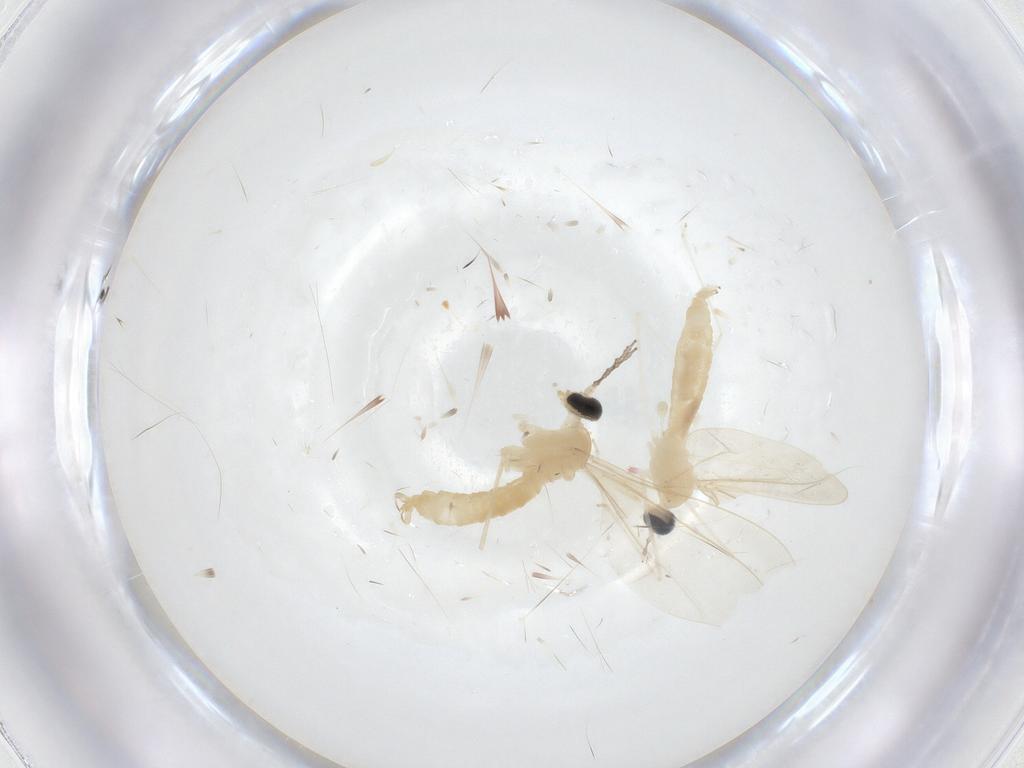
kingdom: Animalia
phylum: Arthropoda
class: Insecta
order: Diptera
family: Cecidomyiidae
